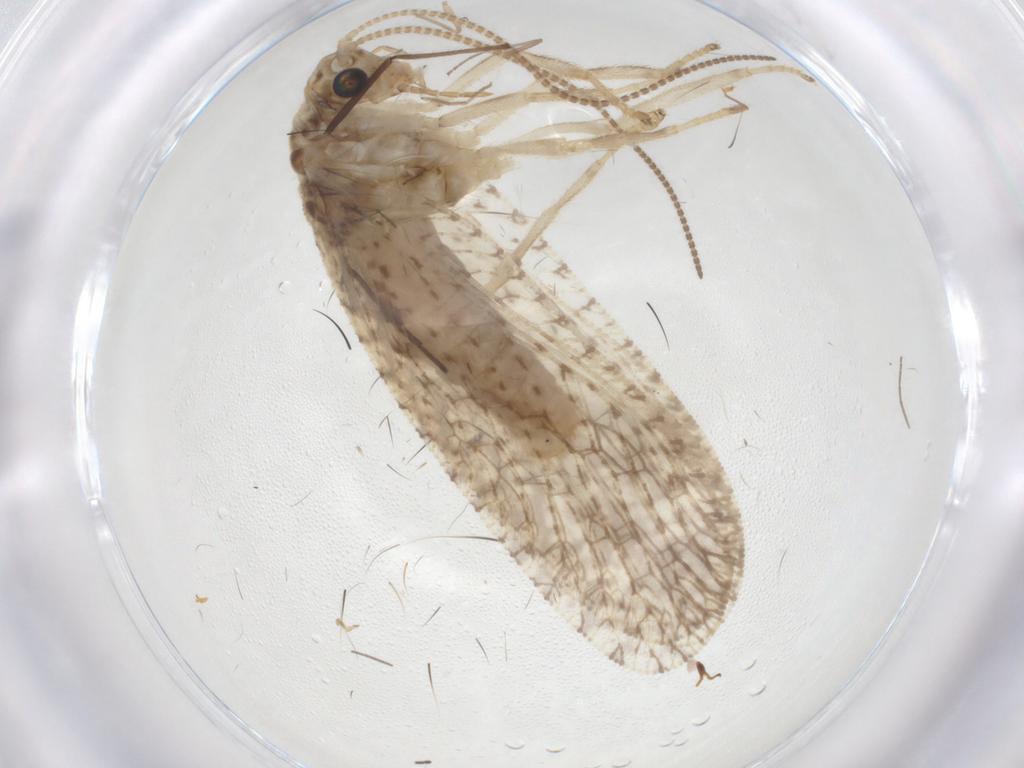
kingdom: Animalia
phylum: Arthropoda
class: Insecta
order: Neuroptera
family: Hemerobiidae
